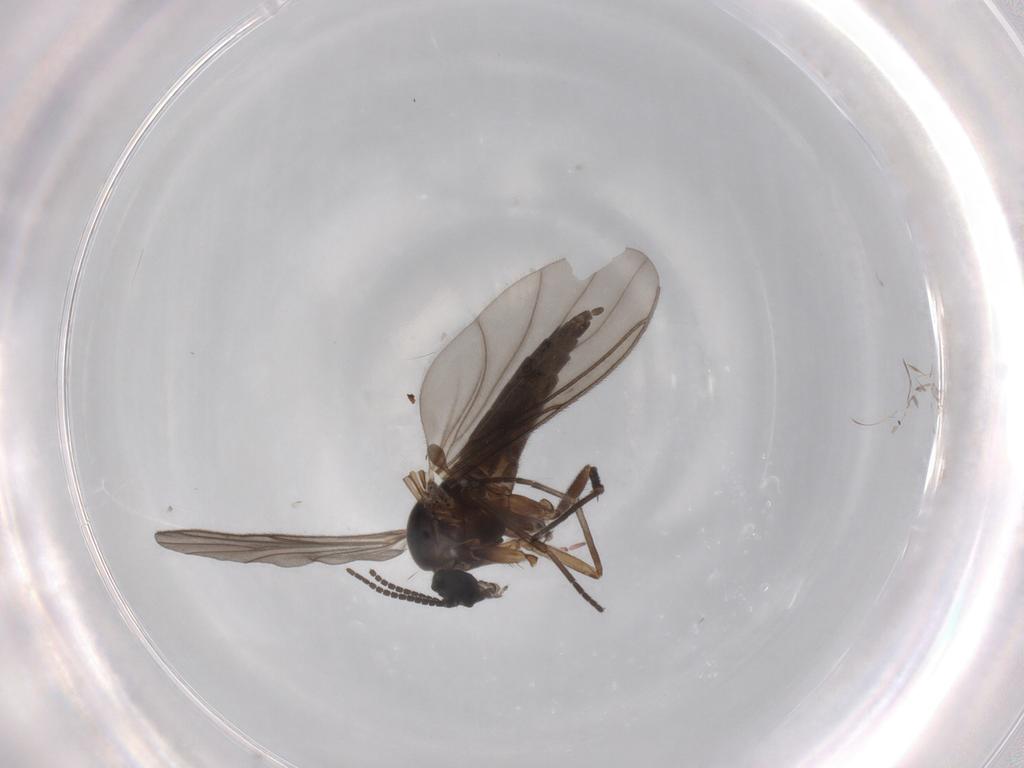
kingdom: Animalia
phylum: Arthropoda
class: Insecta
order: Diptera
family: Sciaridae
